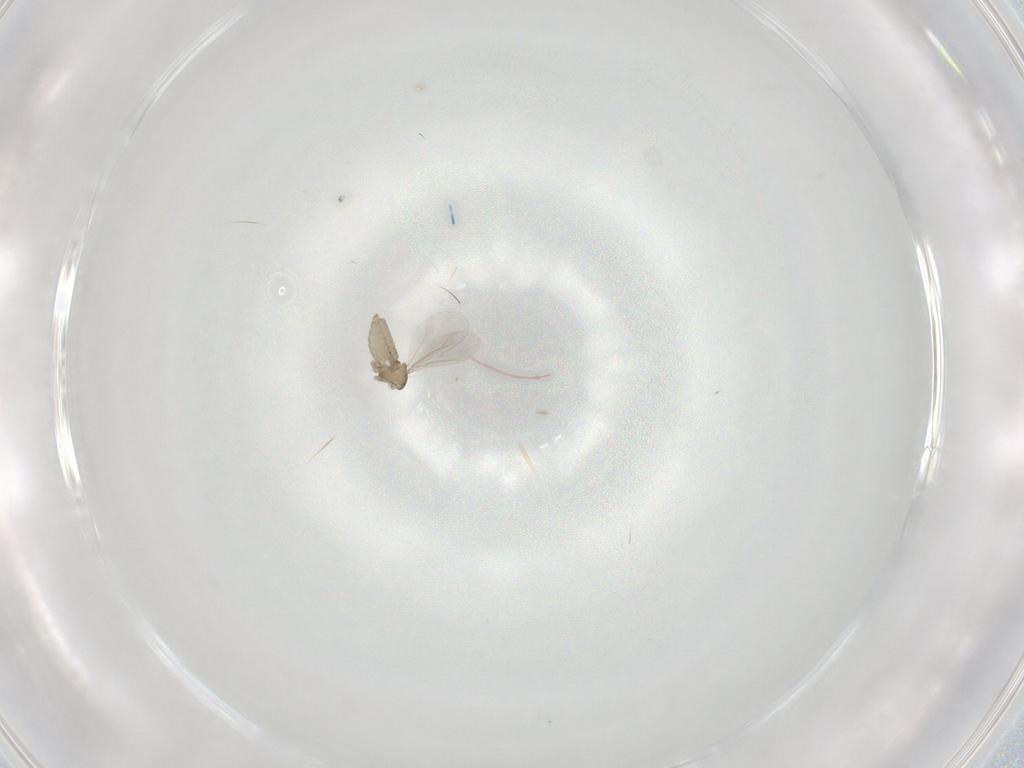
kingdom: Animalia
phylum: Arthropoda
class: Insecta
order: Diptera
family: Cecidomyiidae
